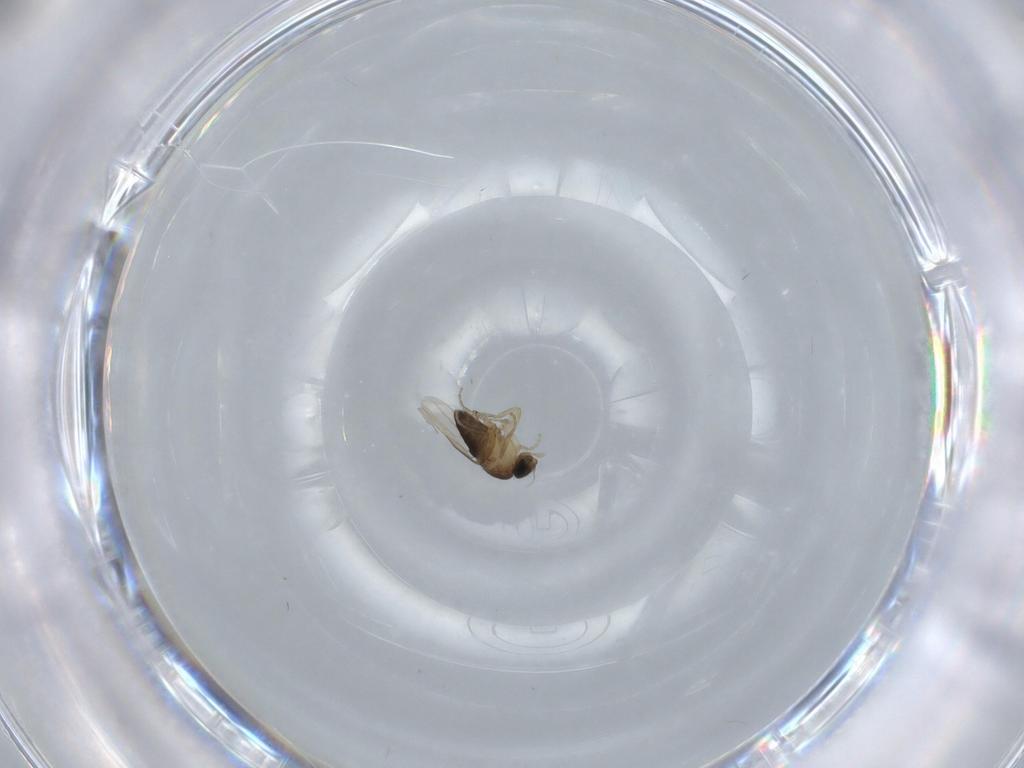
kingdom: Animalia
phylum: Arthropoda
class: Insecta
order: Diptera
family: Phoridae
